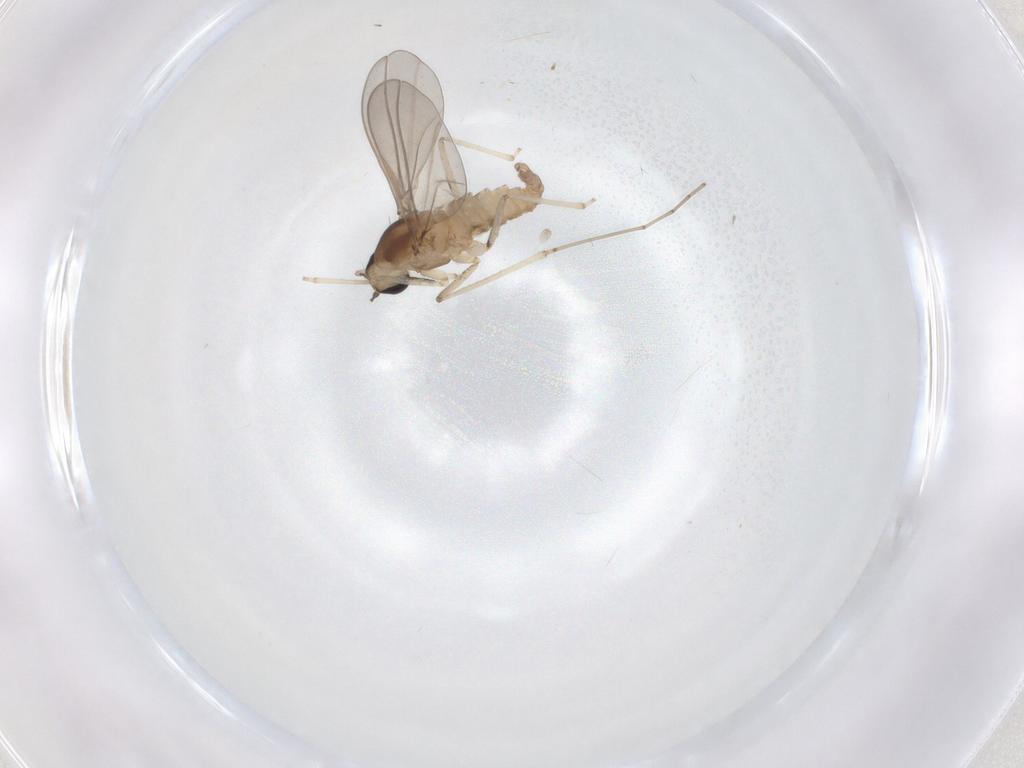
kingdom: Animalia
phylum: Arthropoda
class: Insecta
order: Diptera
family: Cecidomyiidae
